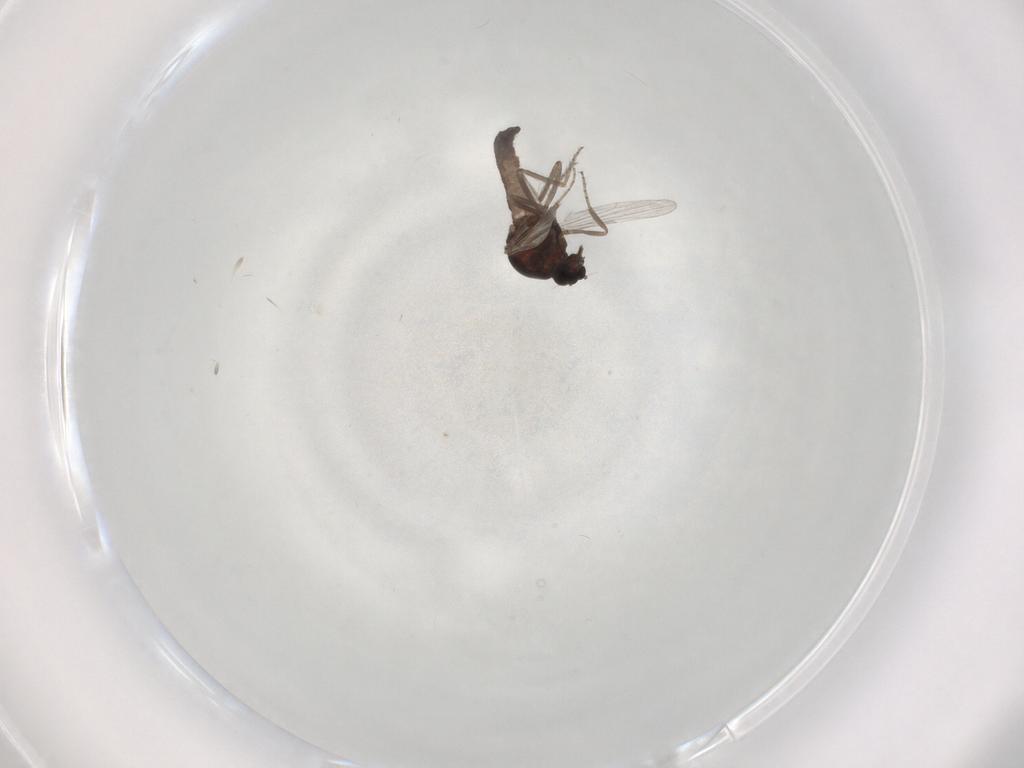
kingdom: Animalia
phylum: Arthropoda
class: Insecta
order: Diptera
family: Ceratopogonidae
